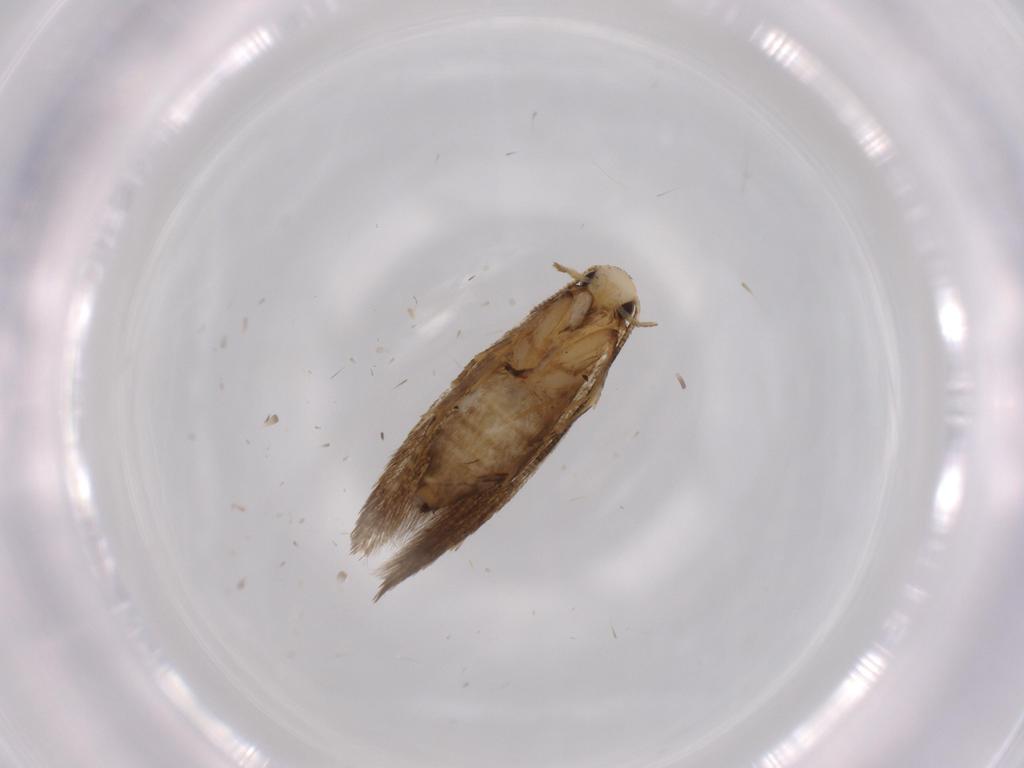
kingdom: Animalia
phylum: Arthropoda
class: Insecta
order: Lepidoptera
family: Tineidae
